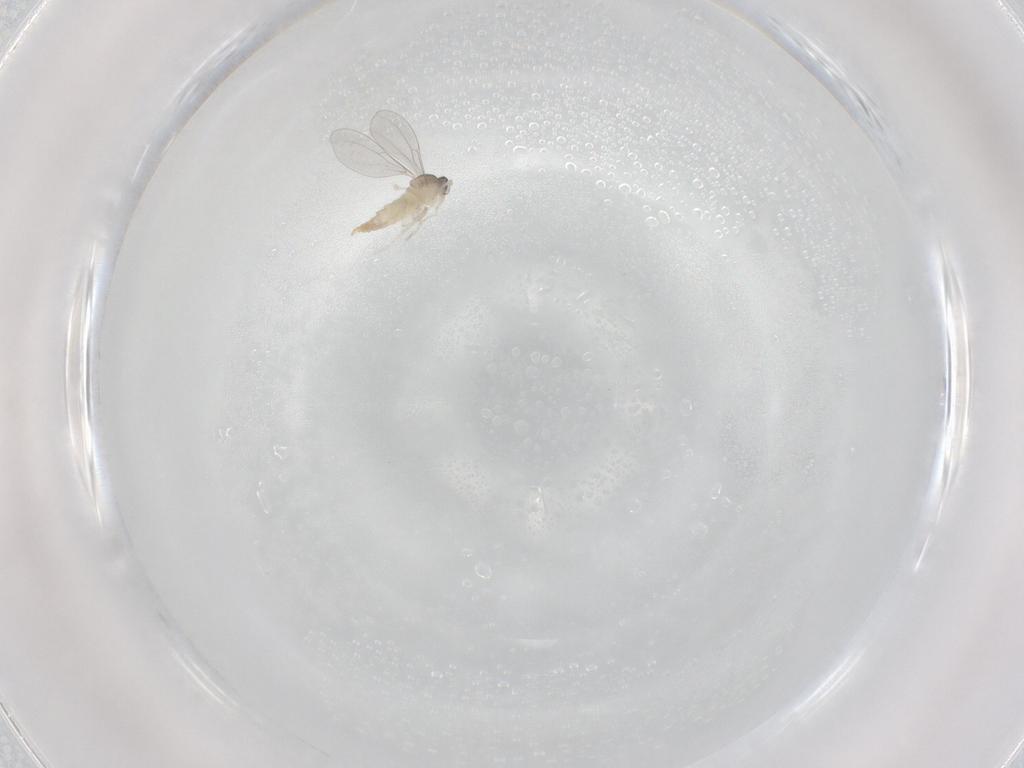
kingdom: Animalia
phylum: Arthropoda
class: Insecta
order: Diptera
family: Cecidomyiidae
